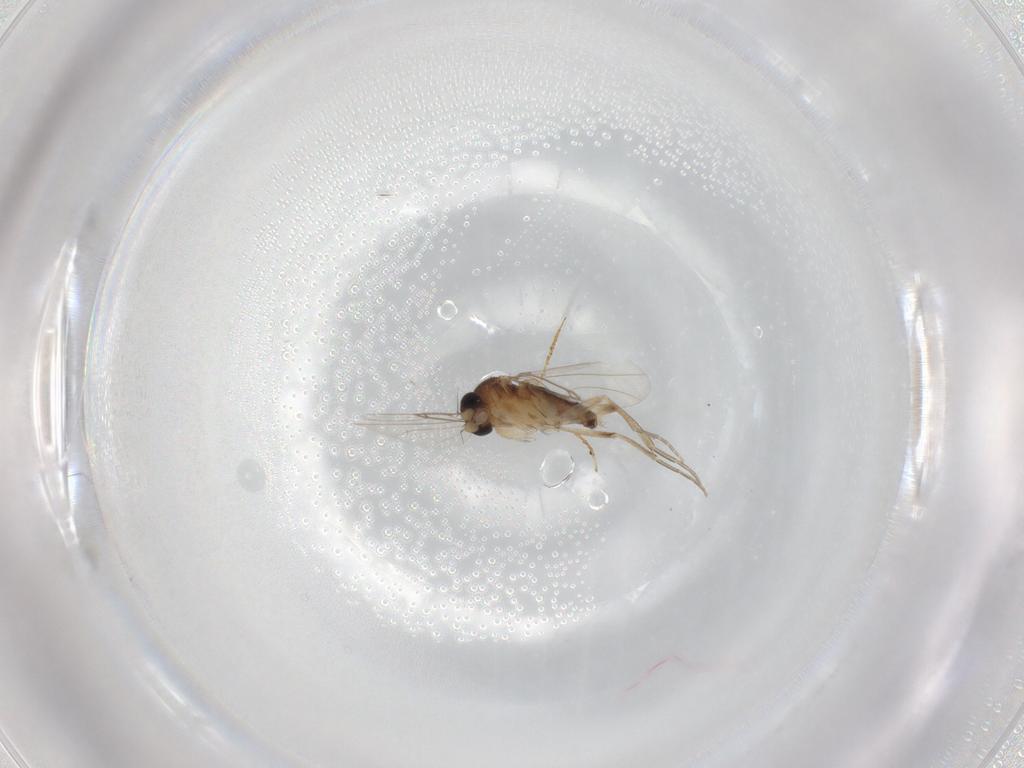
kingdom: Animalia
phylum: Arthropoda
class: Insecta
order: Diptera
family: Phoridae
